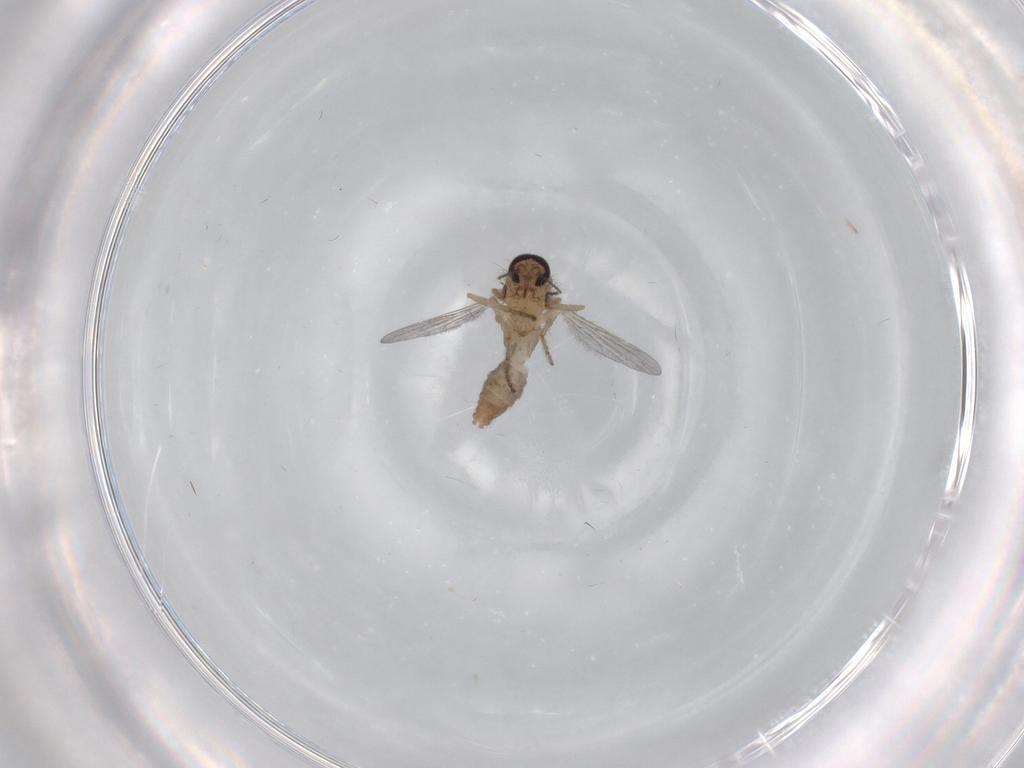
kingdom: Animalia
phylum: Arthropoda
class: Insecta
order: Diptera
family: Ceratopogonidae
